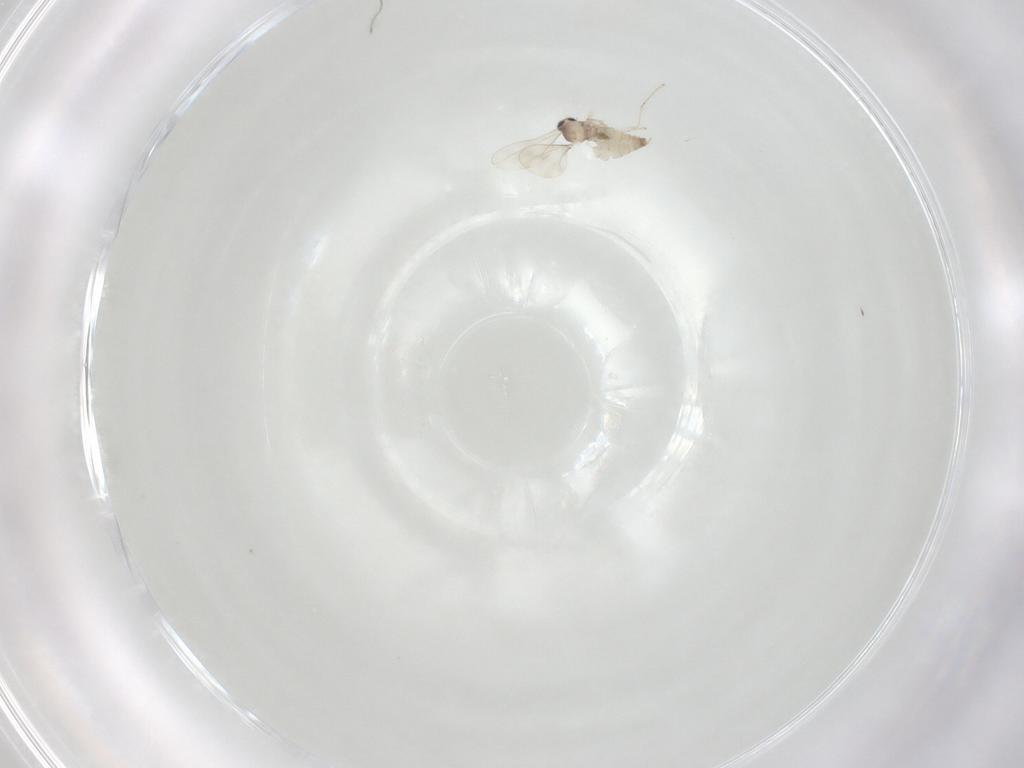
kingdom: Animalia
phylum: Arthropoda
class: Insecta
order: Diptera
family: Cecidomyiidae
